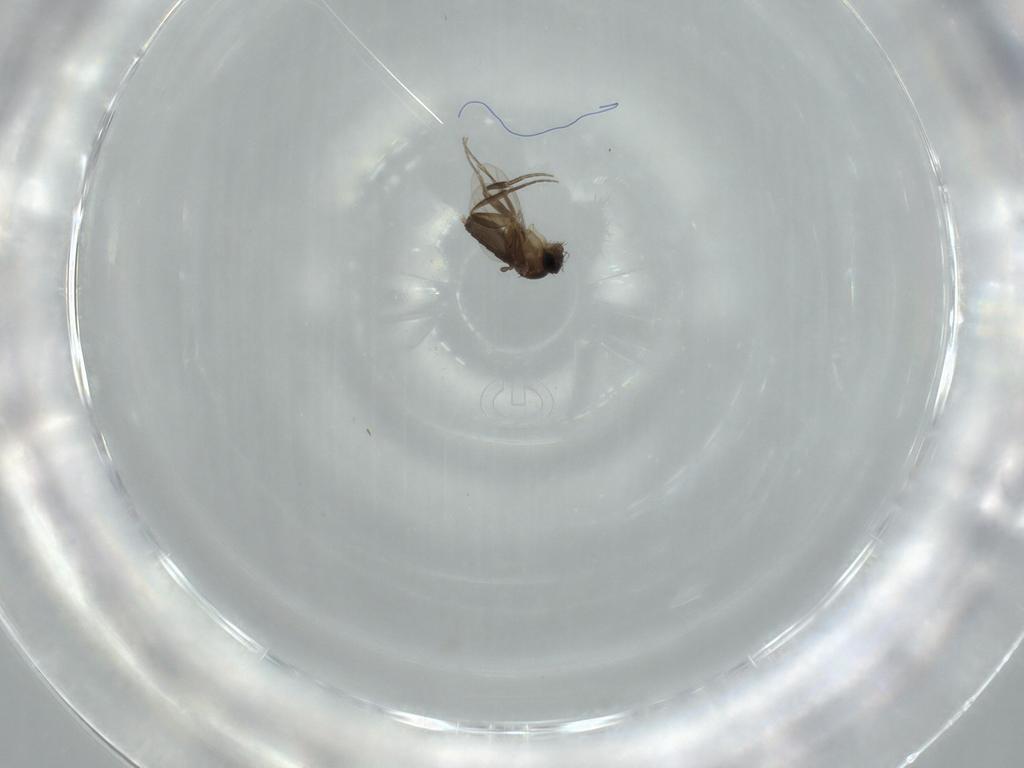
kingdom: Animalia
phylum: Arthropoda
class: Insecta
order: Diptera
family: Phoridae
